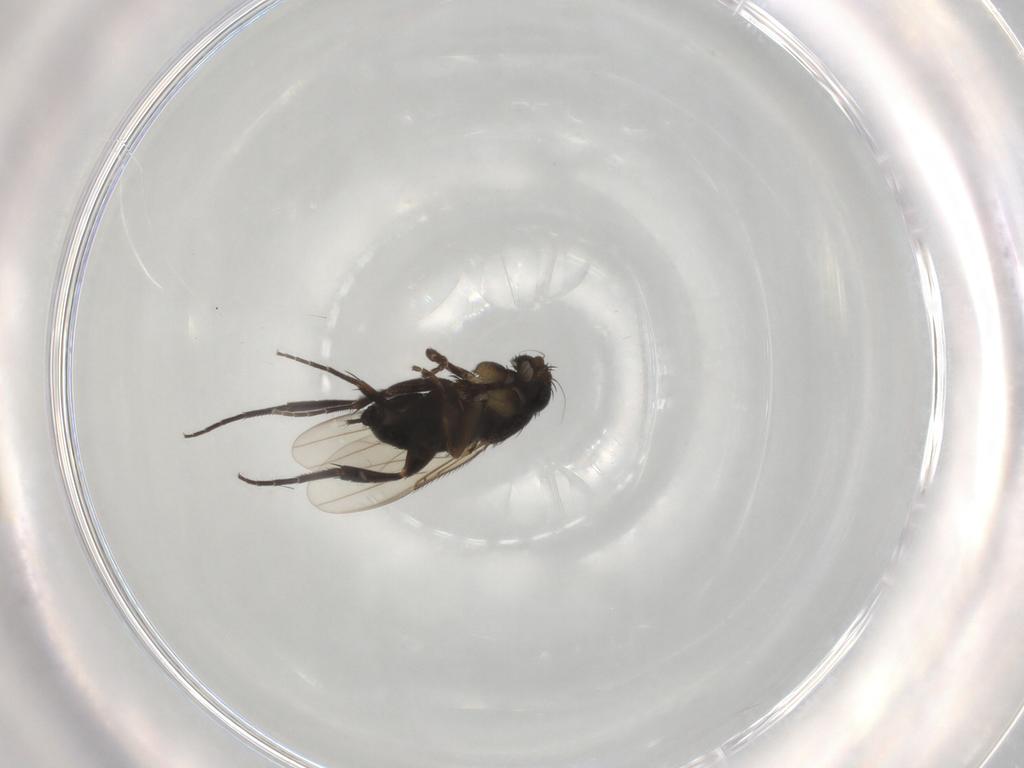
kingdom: Animalia
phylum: Arthropoda
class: Insecta
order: Diptera
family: Phoridae
